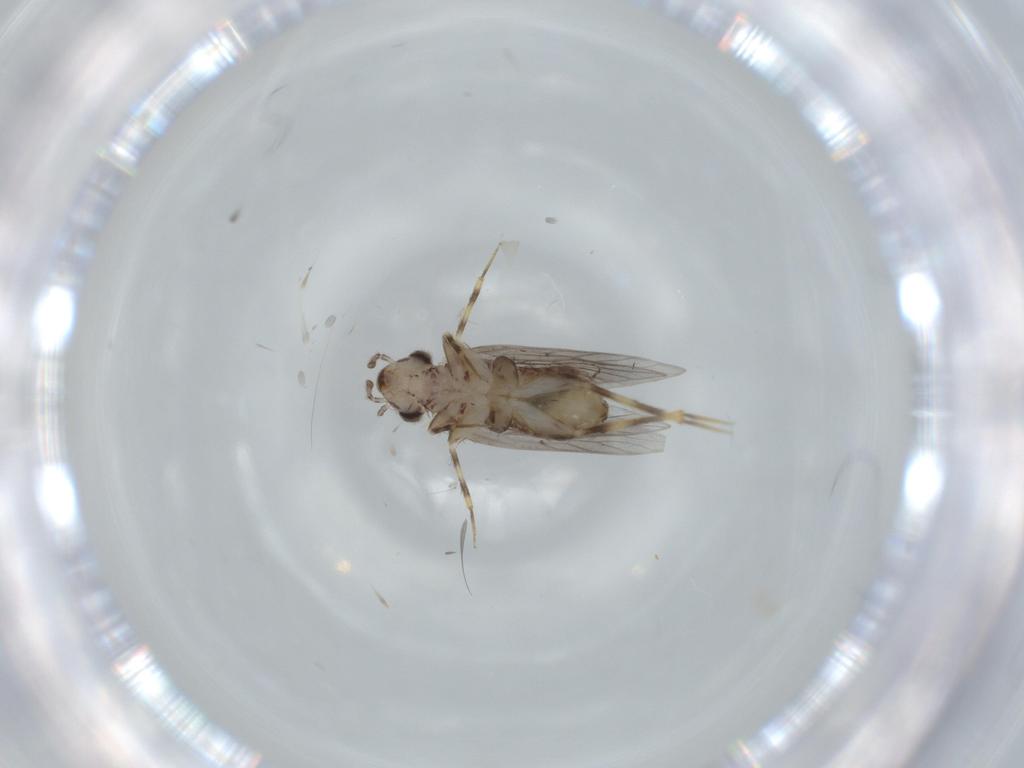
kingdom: Animalia
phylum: Arthropoda
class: Insecta
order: Psocodea
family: Lepidopsocidae
